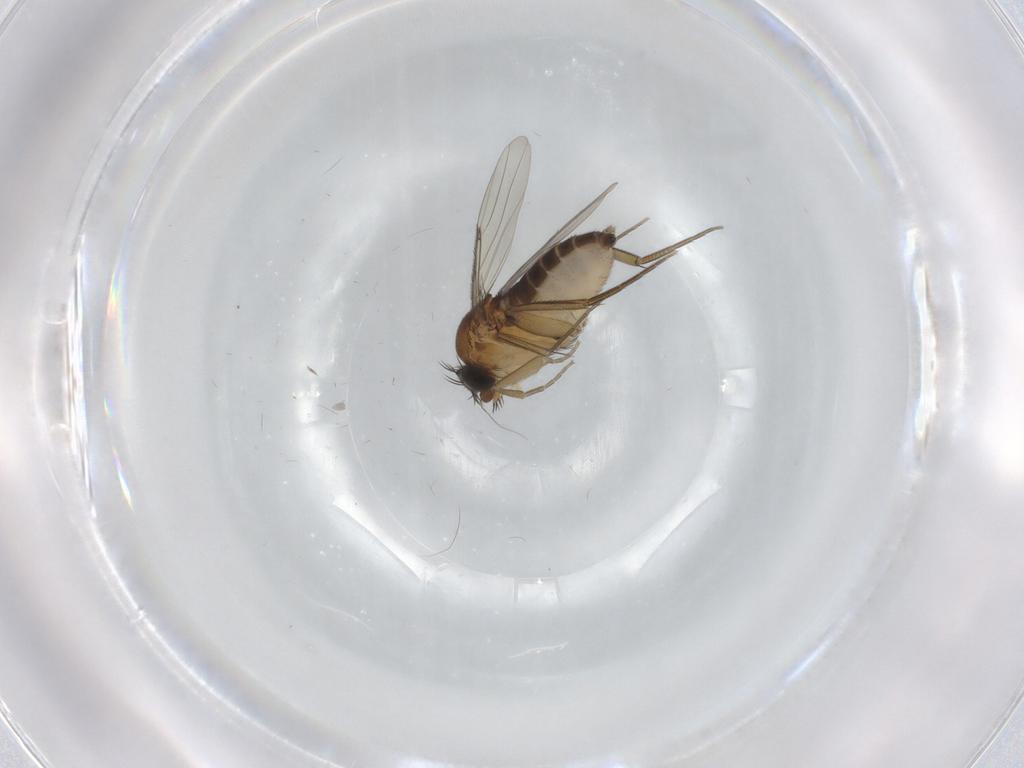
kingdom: Animalia
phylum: Arthropoda
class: Insecta
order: Diptera
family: Phoridae
